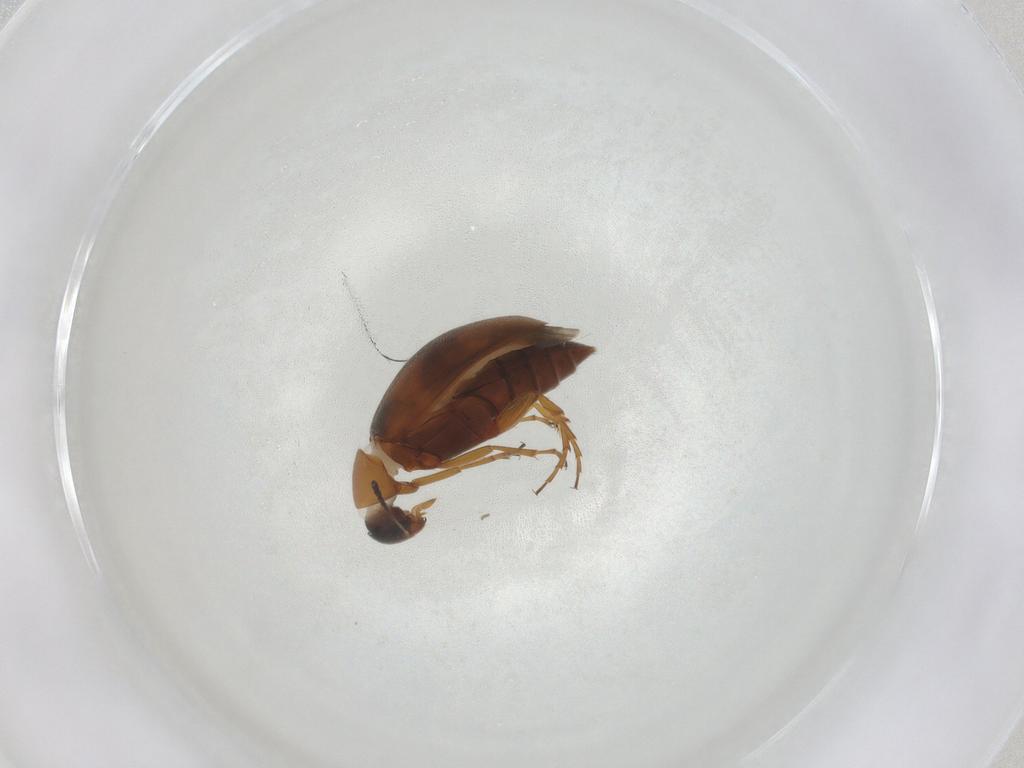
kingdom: Animalia
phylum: Arthropoda
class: Insecta
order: Coleoptera
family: Scraptiidae
